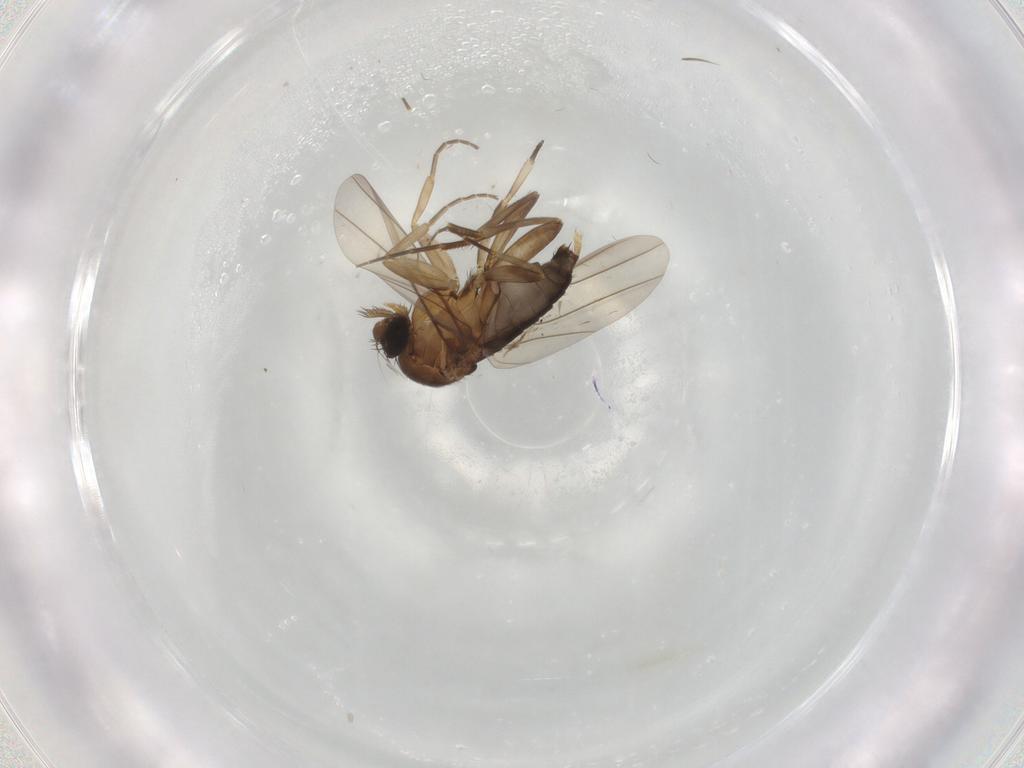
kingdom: Animalia
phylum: Arthropoda
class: Insecta
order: Diptera
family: Phoridae
